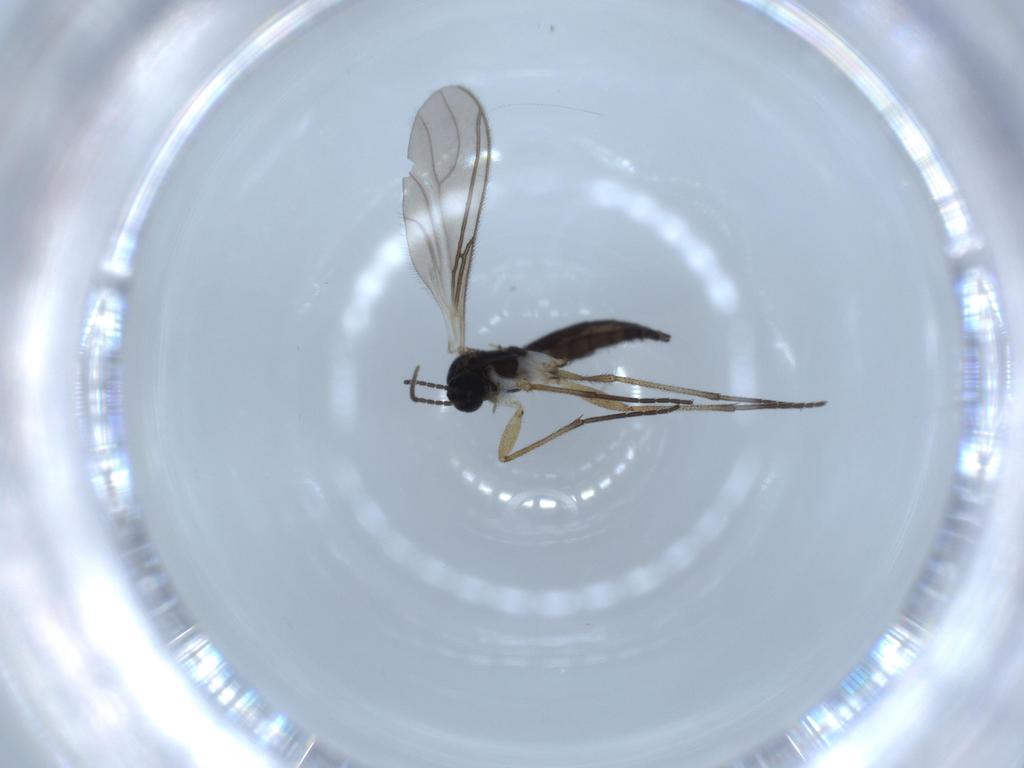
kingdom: Animalia
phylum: Arthropoda
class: Insecta
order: Diptera
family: Sciaridae
